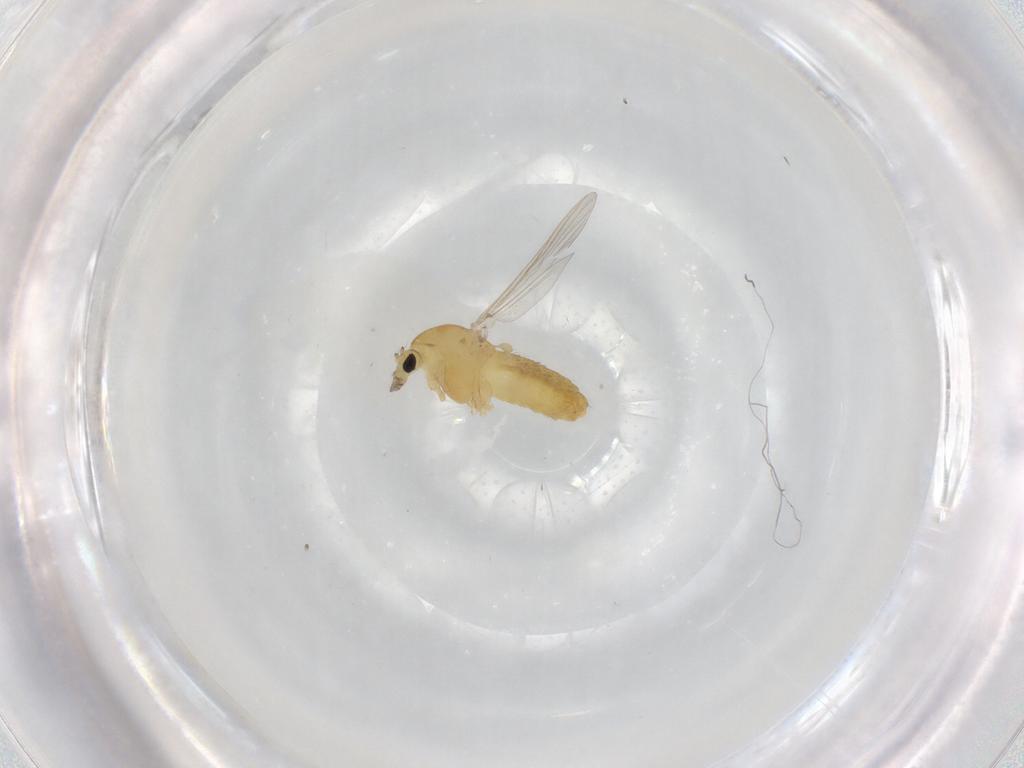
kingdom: Animalia
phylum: Arthropoda
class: Insecta
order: Diptera
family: Chironomidae
